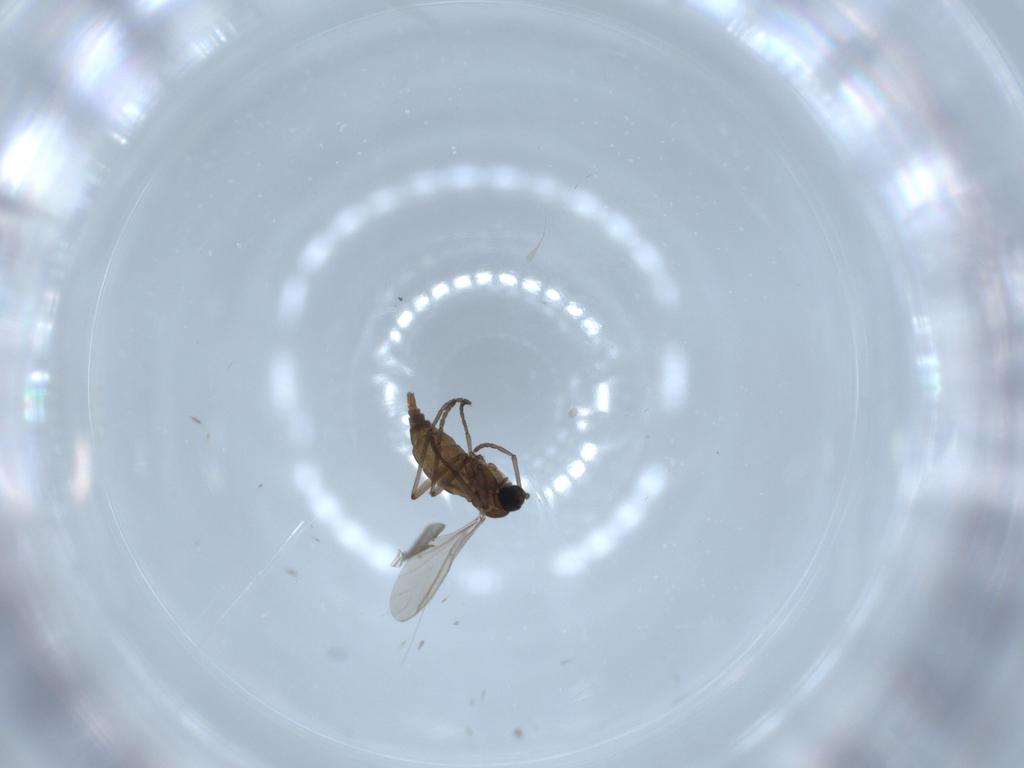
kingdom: Animalia
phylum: Arthropoda
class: Insecta
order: Diptera
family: Sciaridae
